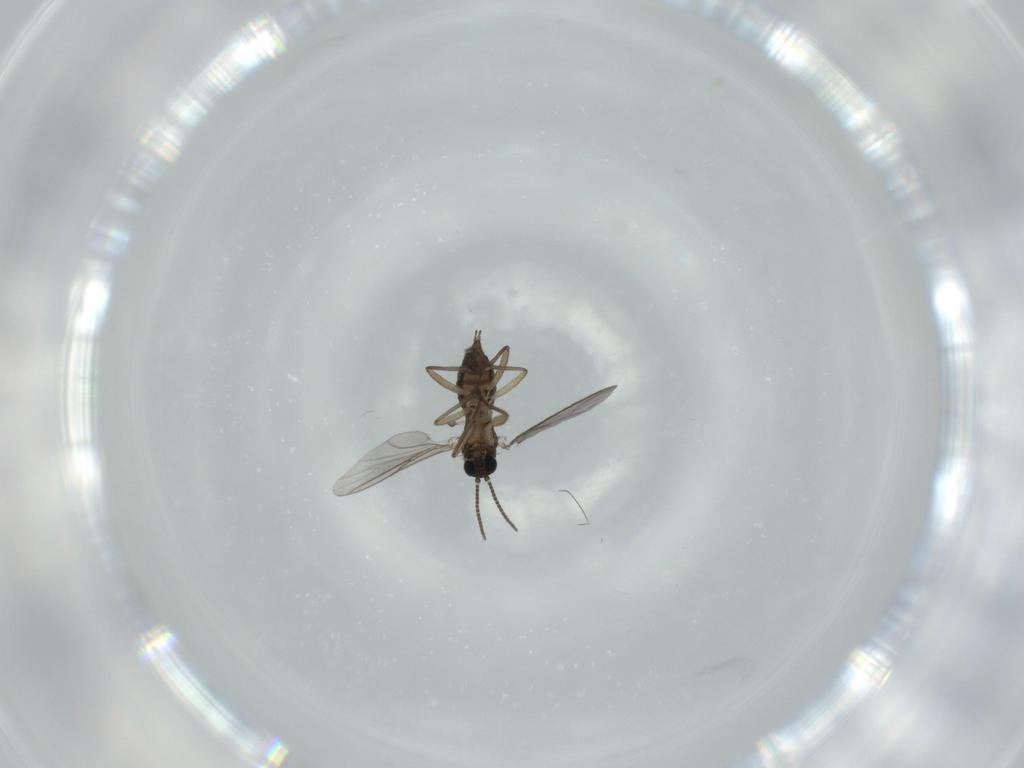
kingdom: Animalia
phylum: Arthropoda
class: Insecta
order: Diptera
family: Sciaridae
